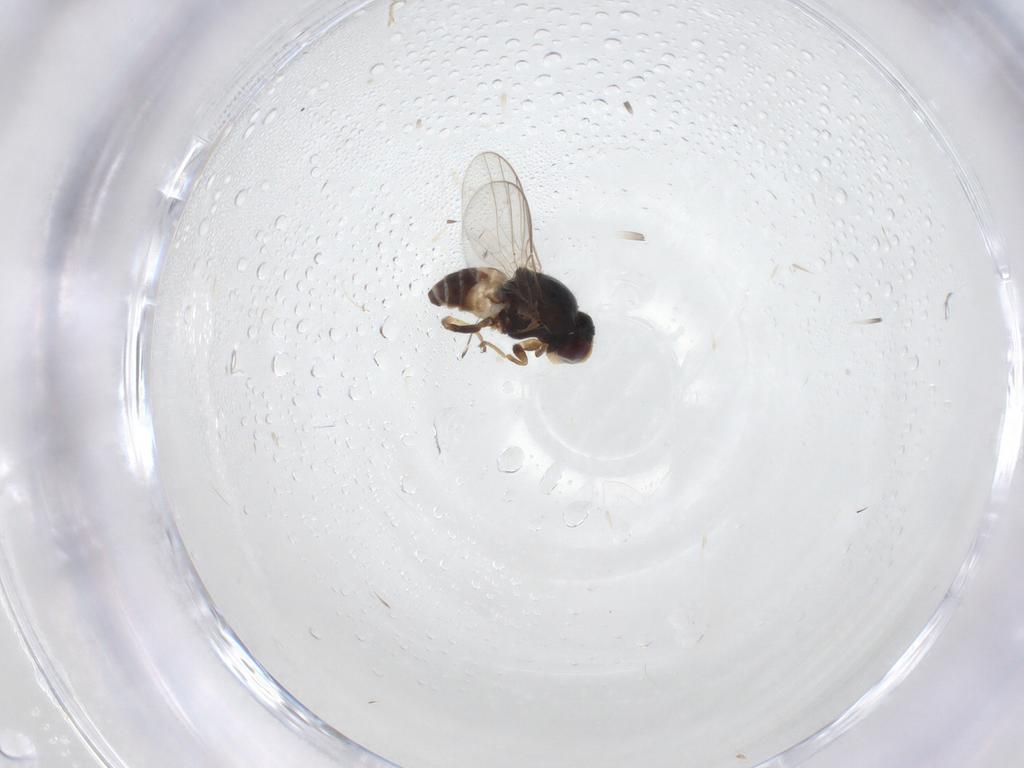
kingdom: Animalia
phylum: Arthropoda
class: Insecta
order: Diptera
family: Chloropidae
